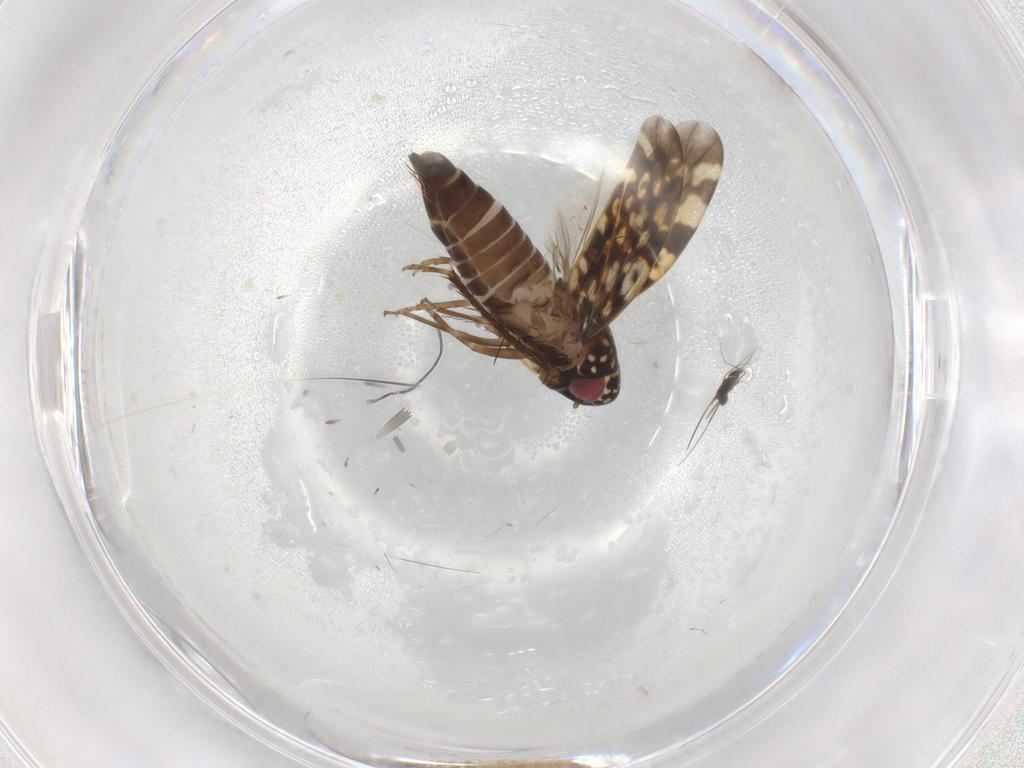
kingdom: Animalia
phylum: Arthropoda
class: Insecta
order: Hemiptera
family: Cicadellidae
